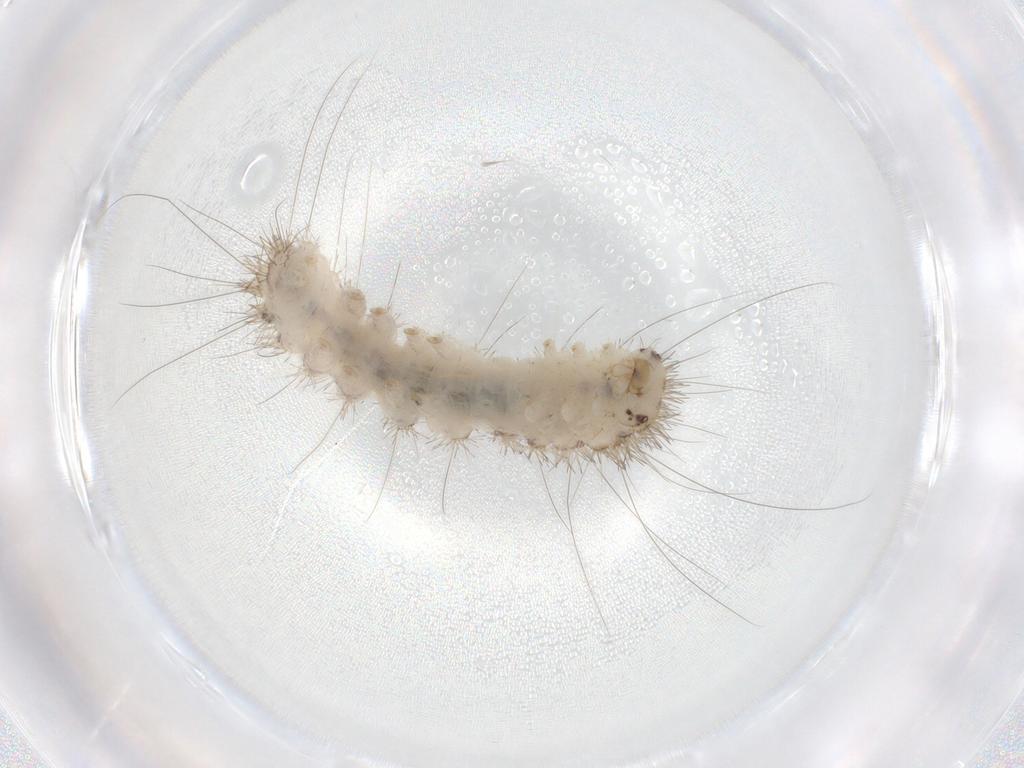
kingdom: Animalia
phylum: Arthropoda
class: Insecta
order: Lepidoptera
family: Erebidae
